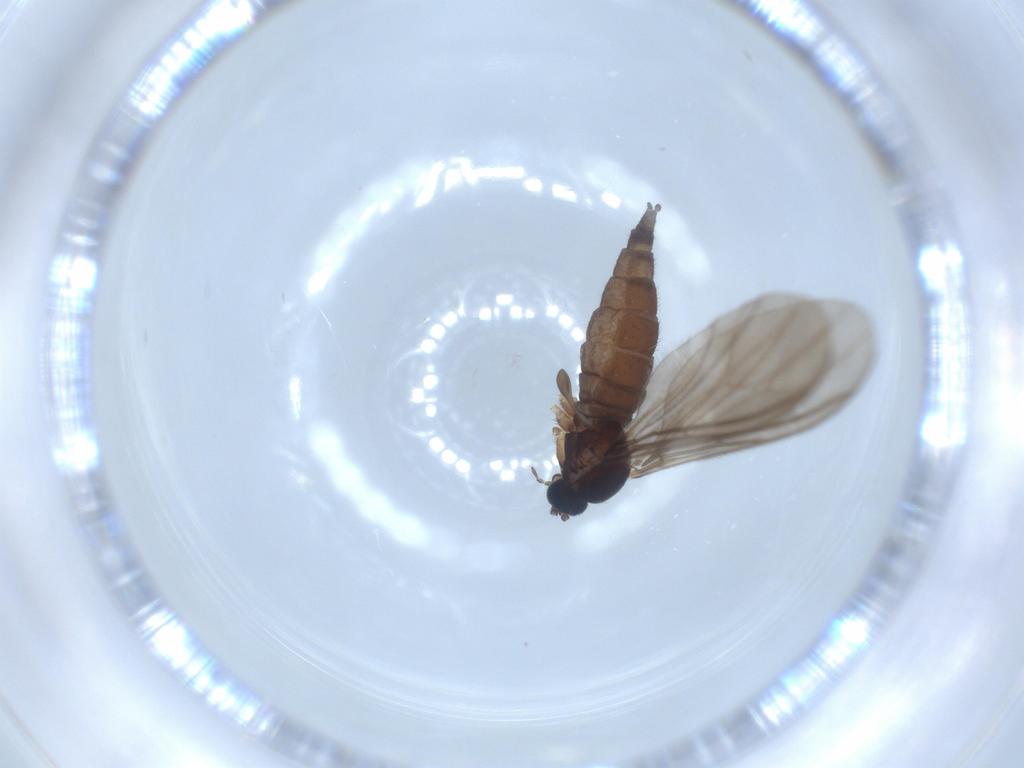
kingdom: Animalia
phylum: Arthropoda
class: Insecta
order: Diptera
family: Sciaridae
